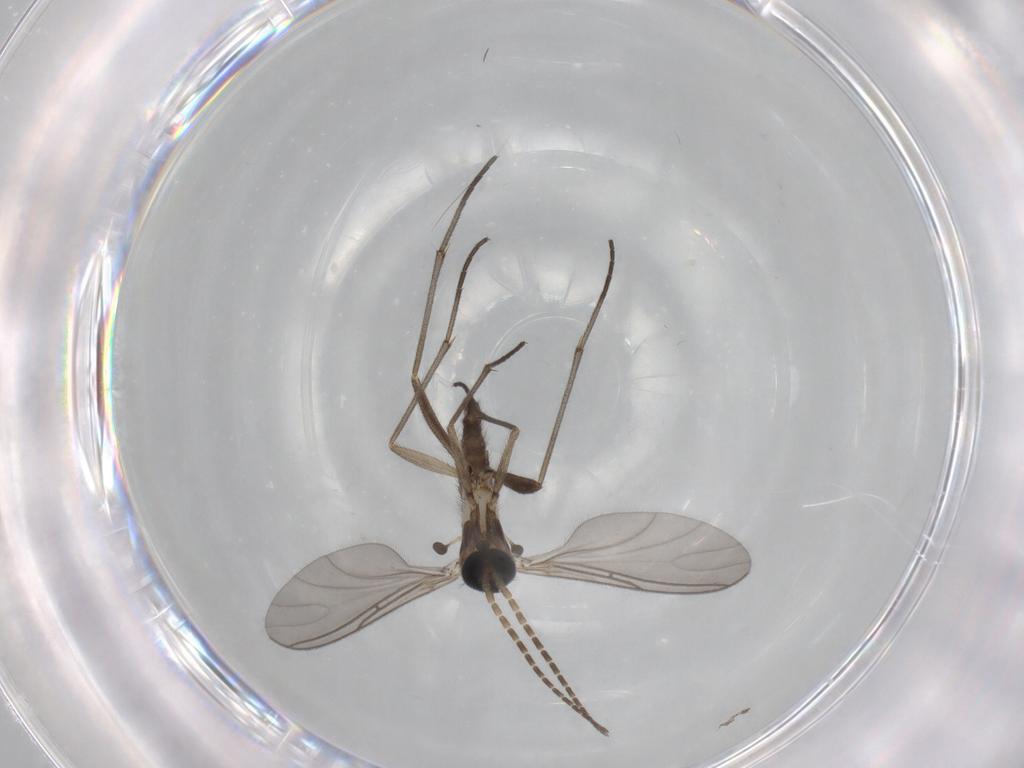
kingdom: Animalia
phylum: Arthropoda
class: Insecta
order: Diptera
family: Sciaridae
